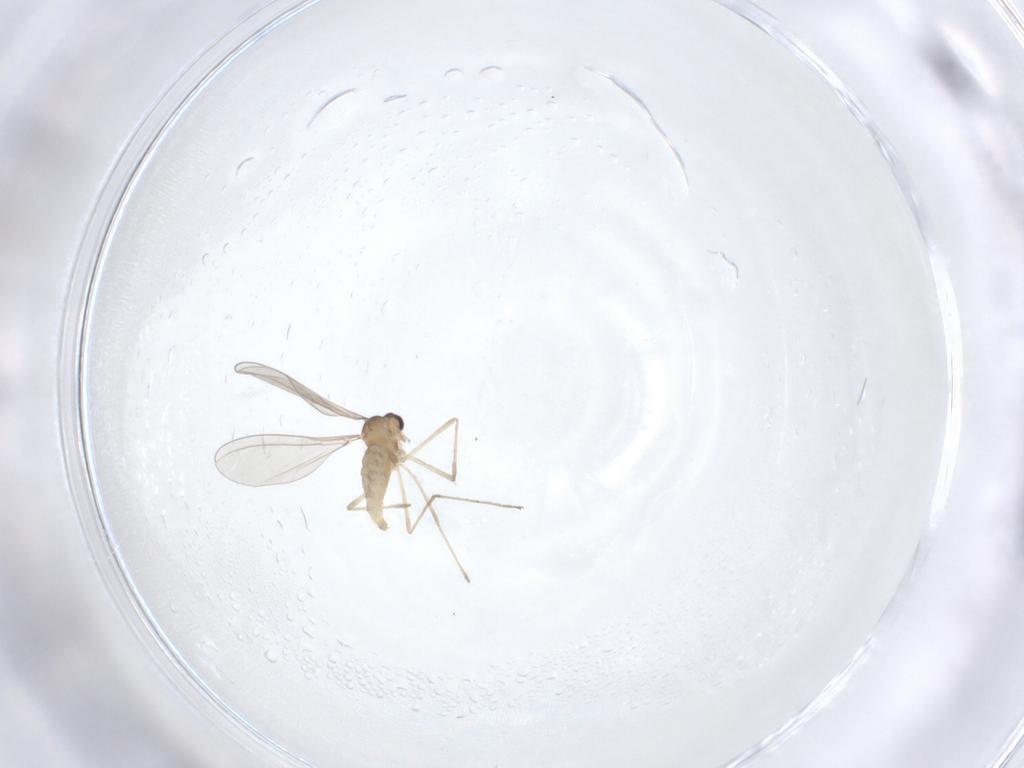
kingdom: Animalia
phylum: Arthropoda
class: Insecta
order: Diptera
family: Cecidomyiidae
